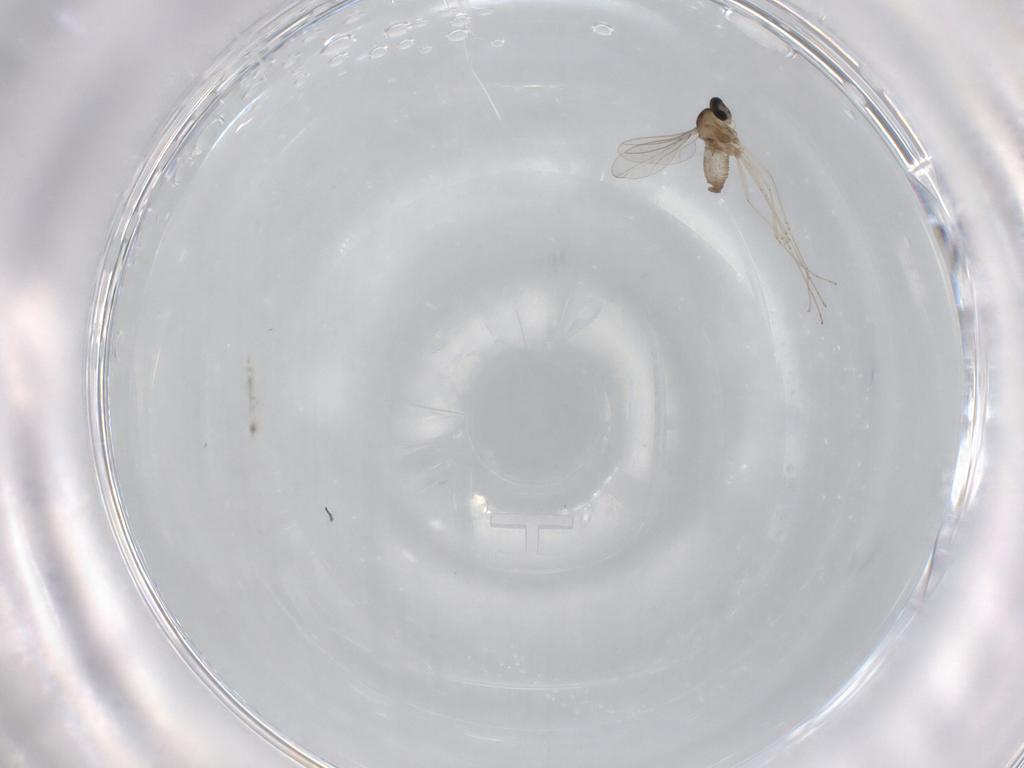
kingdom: Animalia
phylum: Arthropoda
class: Insecta
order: Diptera
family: Cecidomyiidae
